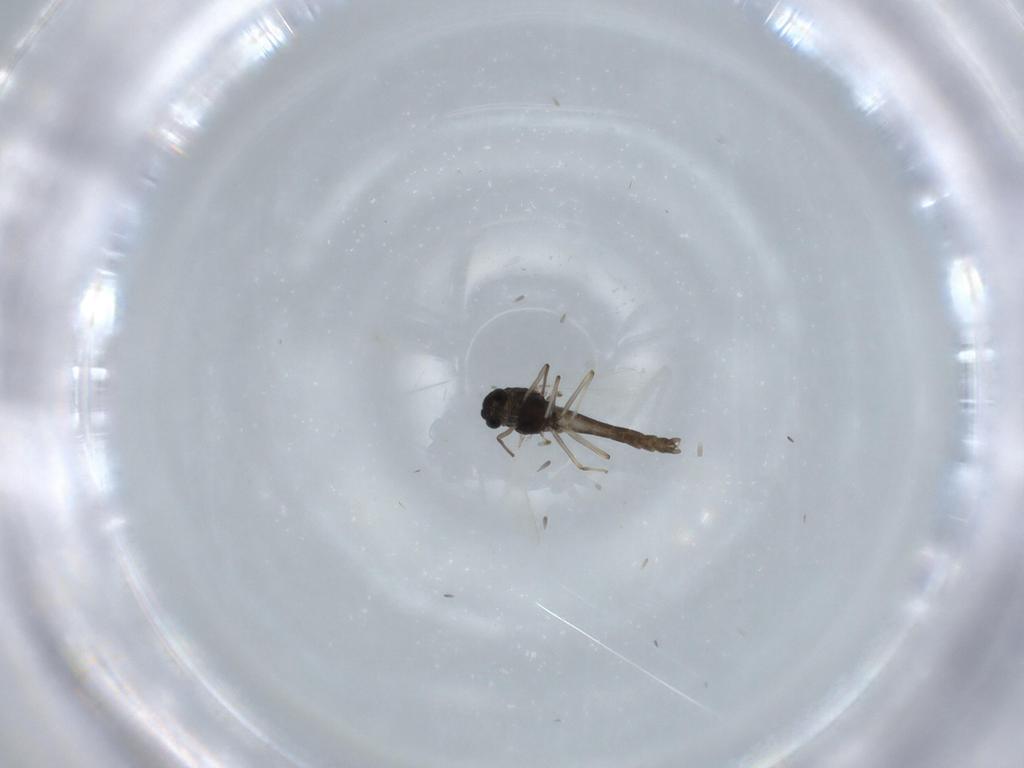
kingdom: Animalia
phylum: Arthropoda
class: Insecta
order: Diptera
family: Chironomidae
